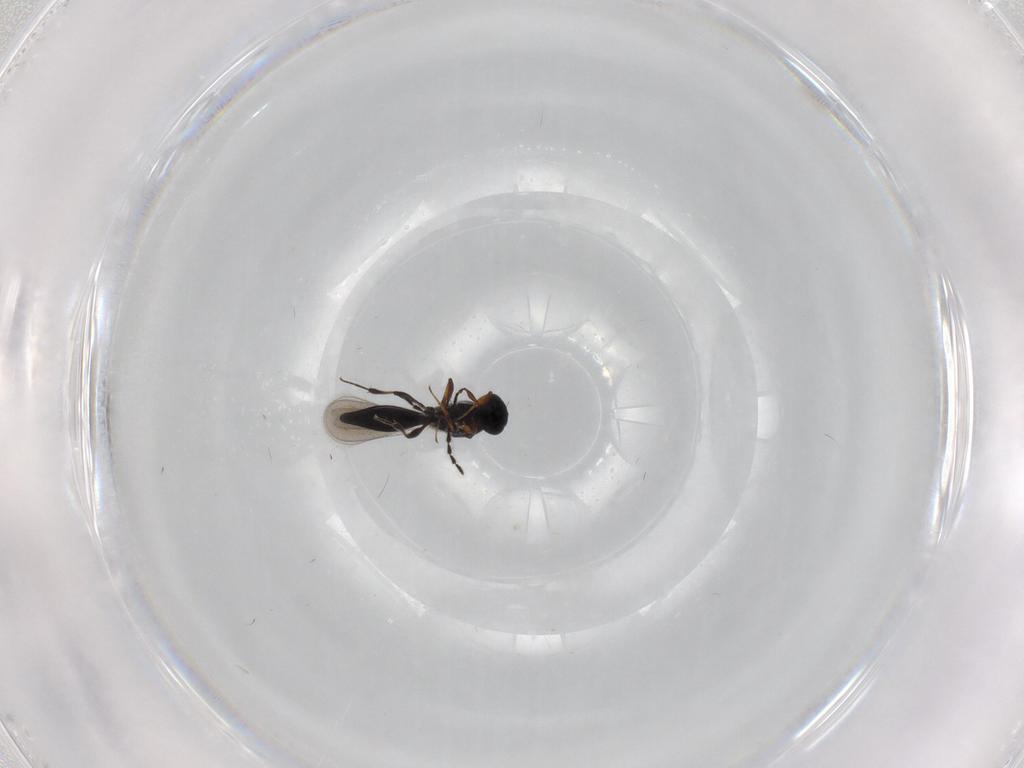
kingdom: Animalia
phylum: Arthropoda
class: Insecta
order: Hymenoptera
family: Platygastridae
